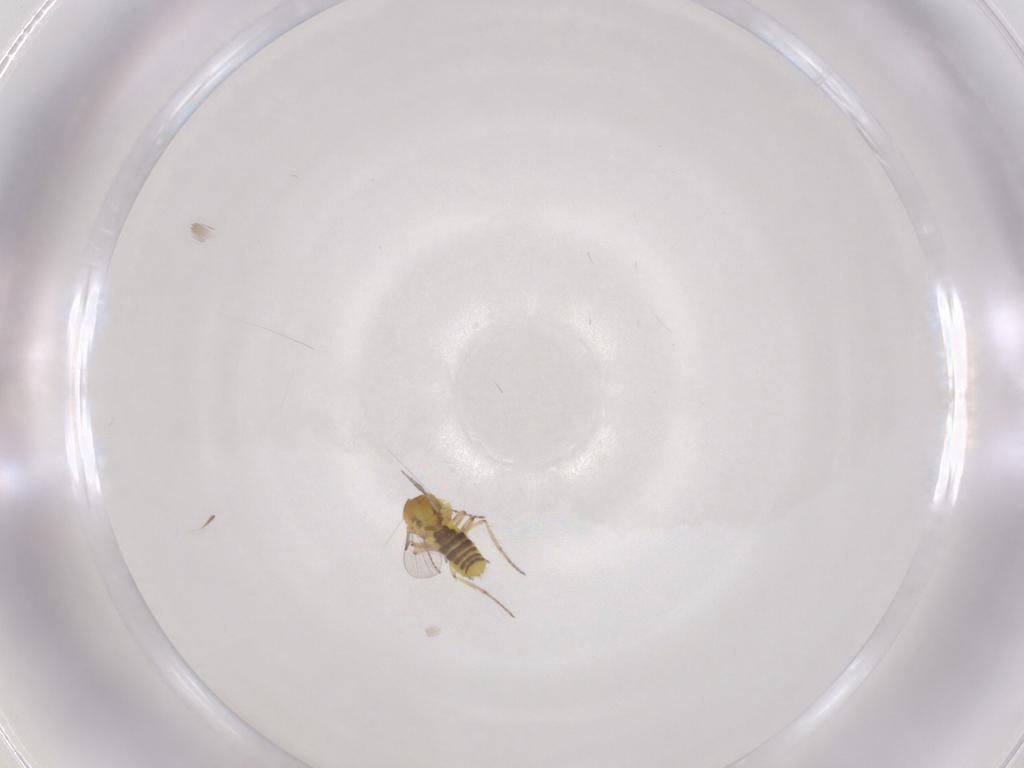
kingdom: Animalia
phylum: Arthropoda
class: Insecta
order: Diptera
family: Ceratopogonidae
